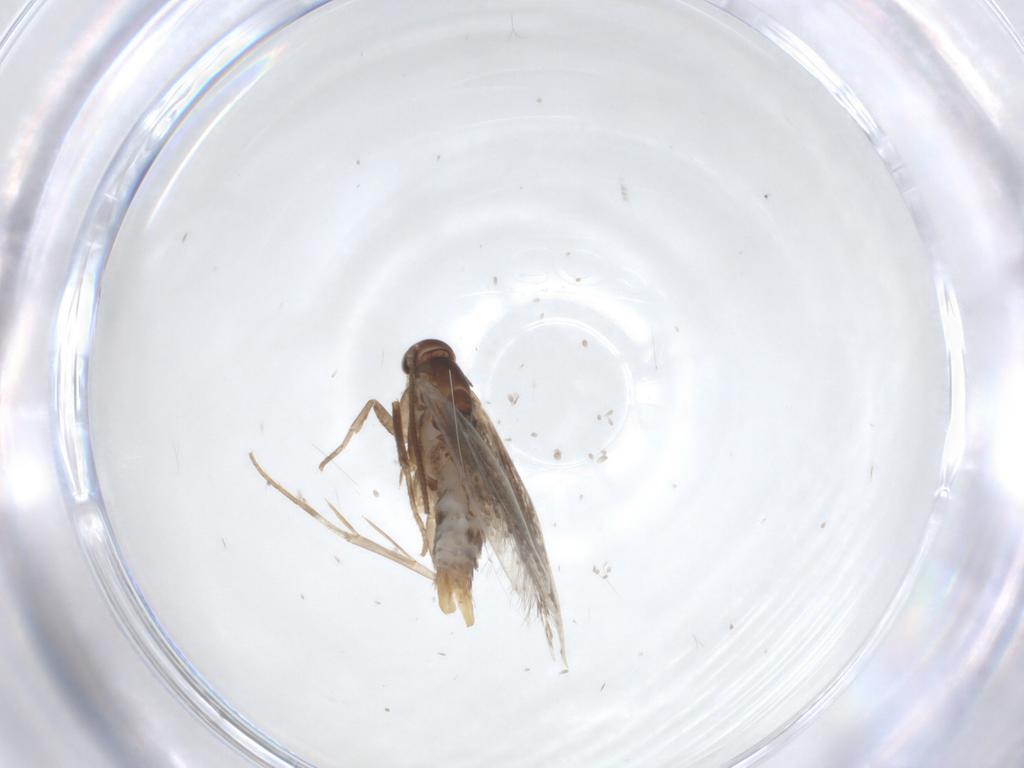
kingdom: Animalia
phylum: Arthropoda
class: Insecta
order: Lepidoptera
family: Elachistidae
